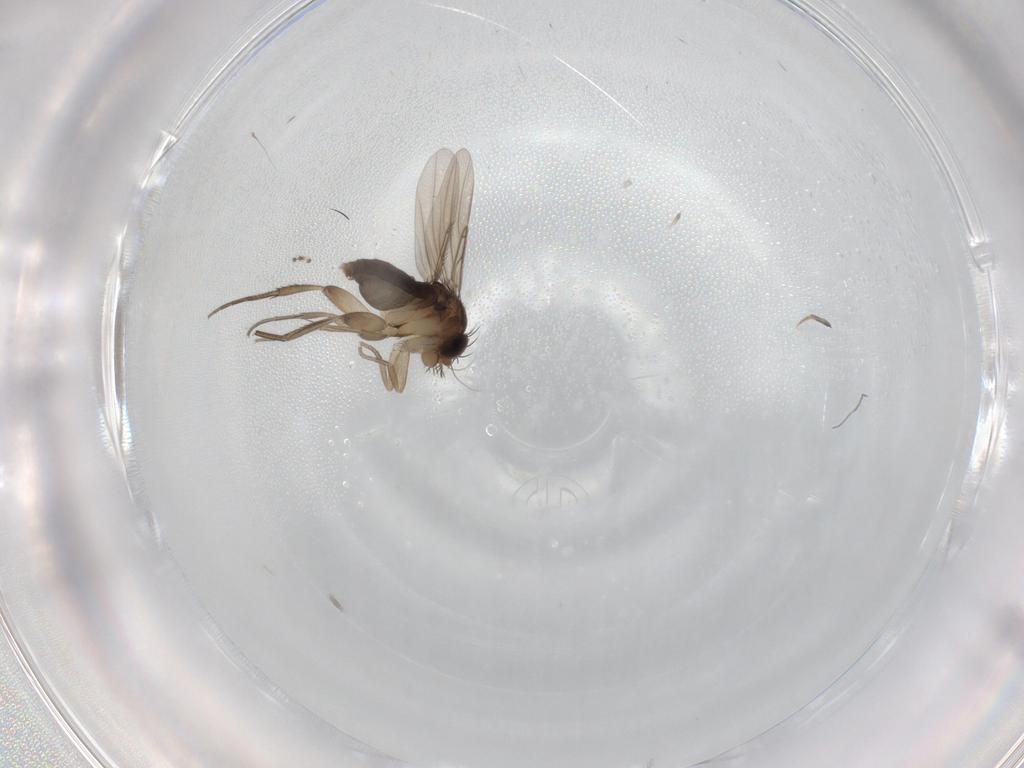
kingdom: Animalia
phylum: Arthropoda
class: Insecta
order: Diptera
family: Phoridae
